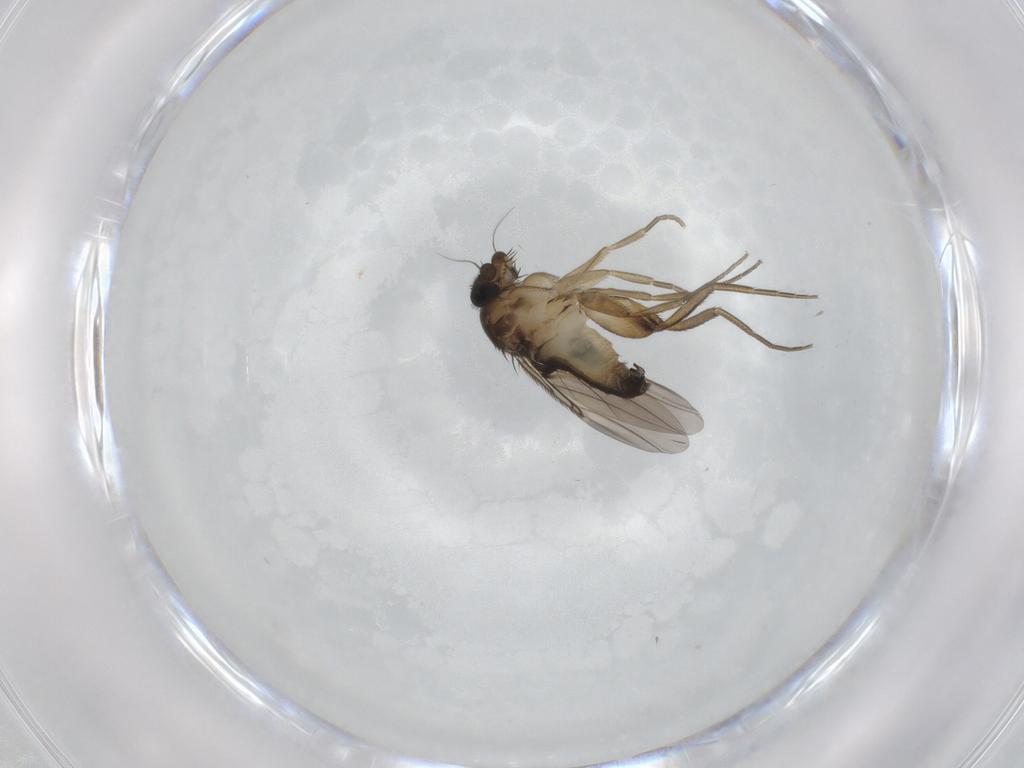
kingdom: Animalia
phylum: Arthropoda
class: Insecta
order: Diptera
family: Phoridae
